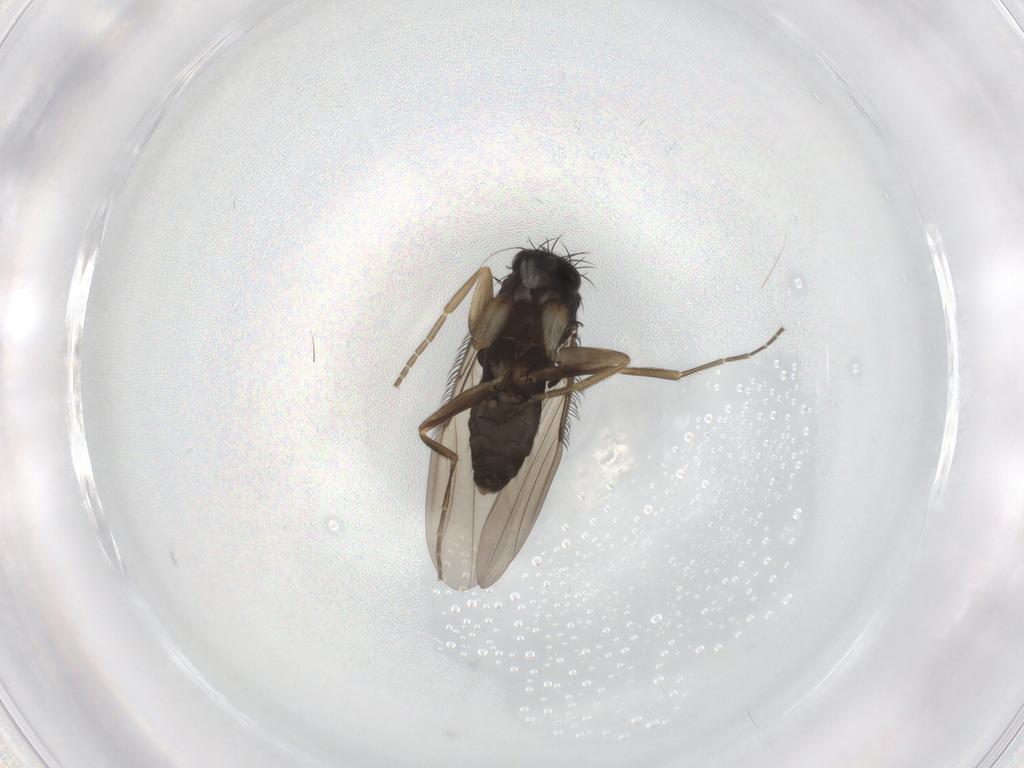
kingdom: Animalia
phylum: Arthropoda
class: Insecta
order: Diptera
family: Phoridae
